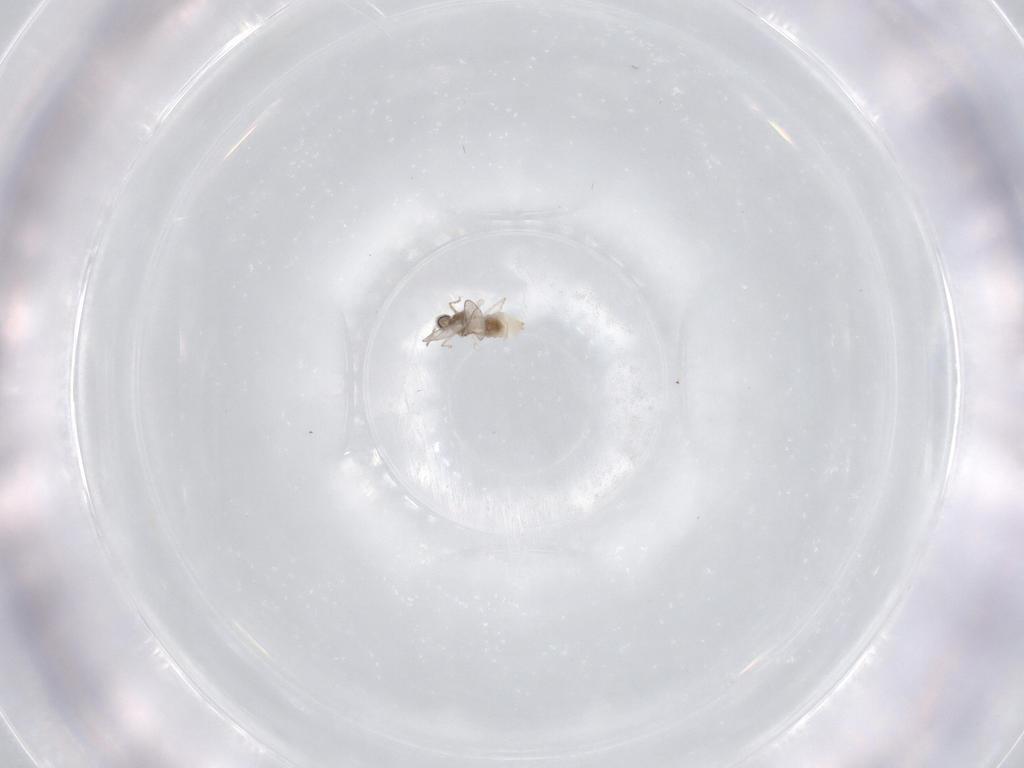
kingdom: Animalia
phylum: Arthropoda
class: Insecta
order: Diptera
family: Cecidomyiidae
